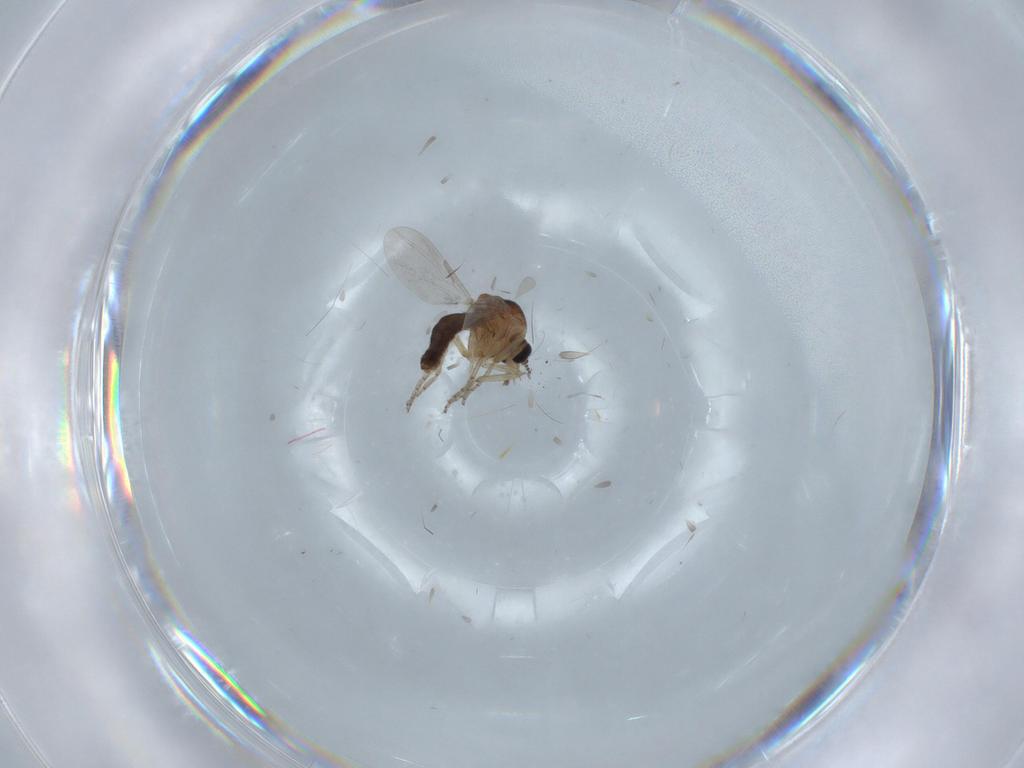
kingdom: Animalia
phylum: Arthropoda
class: Insecta
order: Diptera
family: Ceratopogonidae
